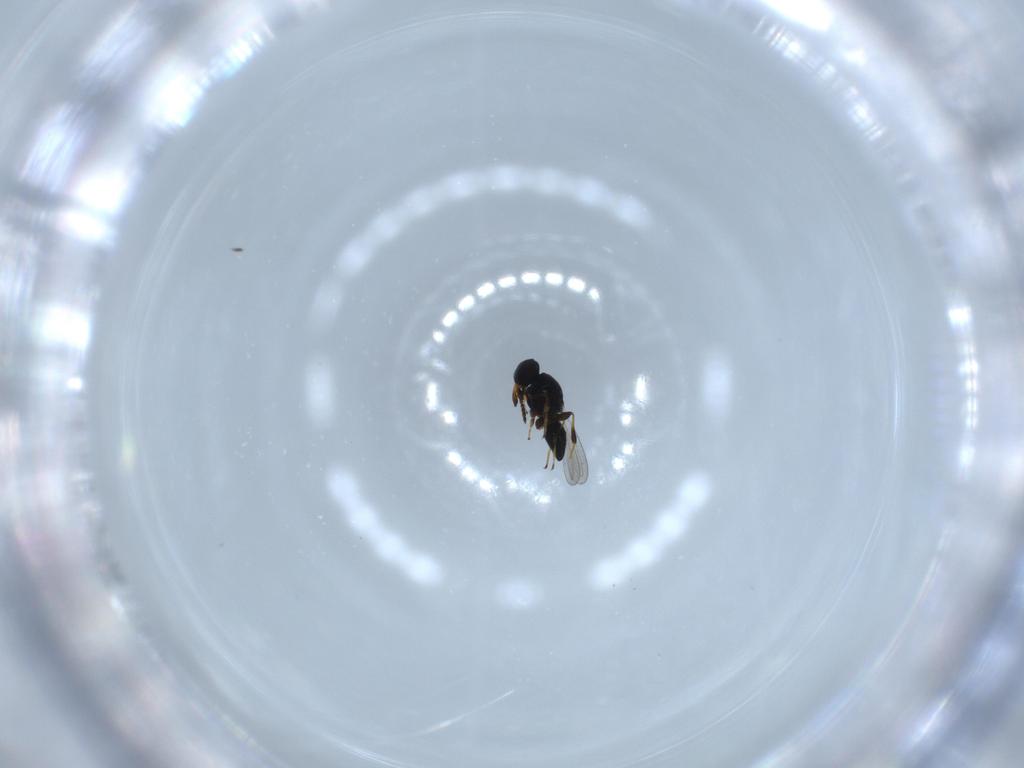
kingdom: Animalia
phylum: Arthropoda
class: Insecta
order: Hymenoptera
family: Platygastridae
